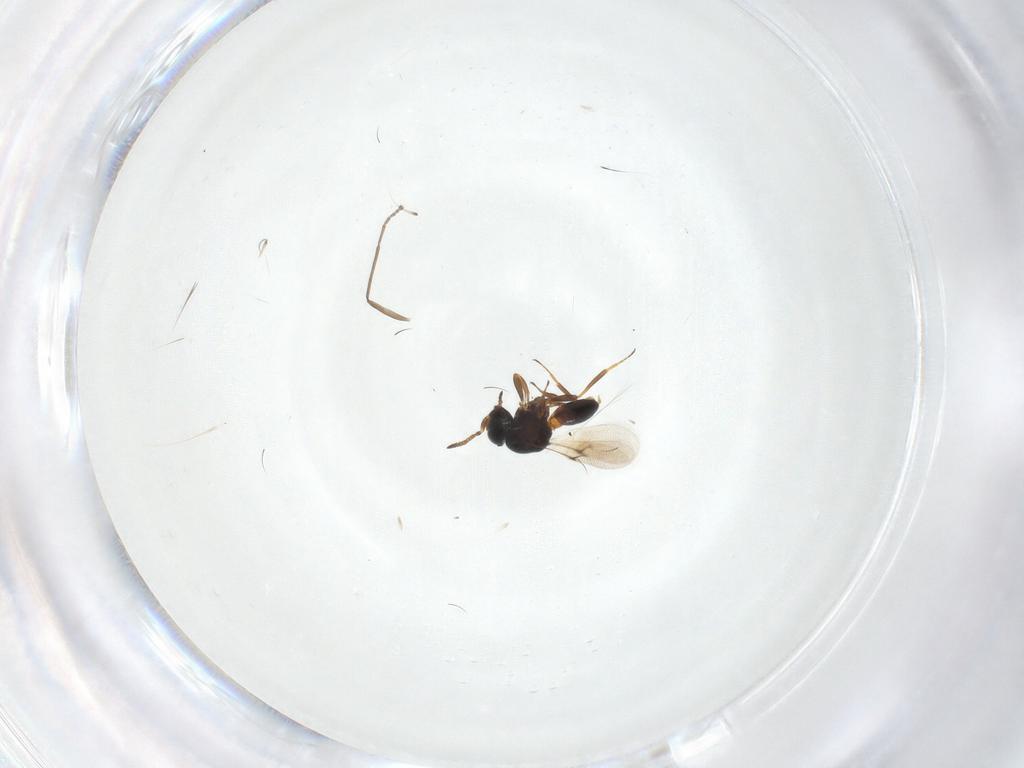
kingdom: Animalia
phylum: Arthropoda
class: Insecta
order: Hymenoptera
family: Scelionidae
